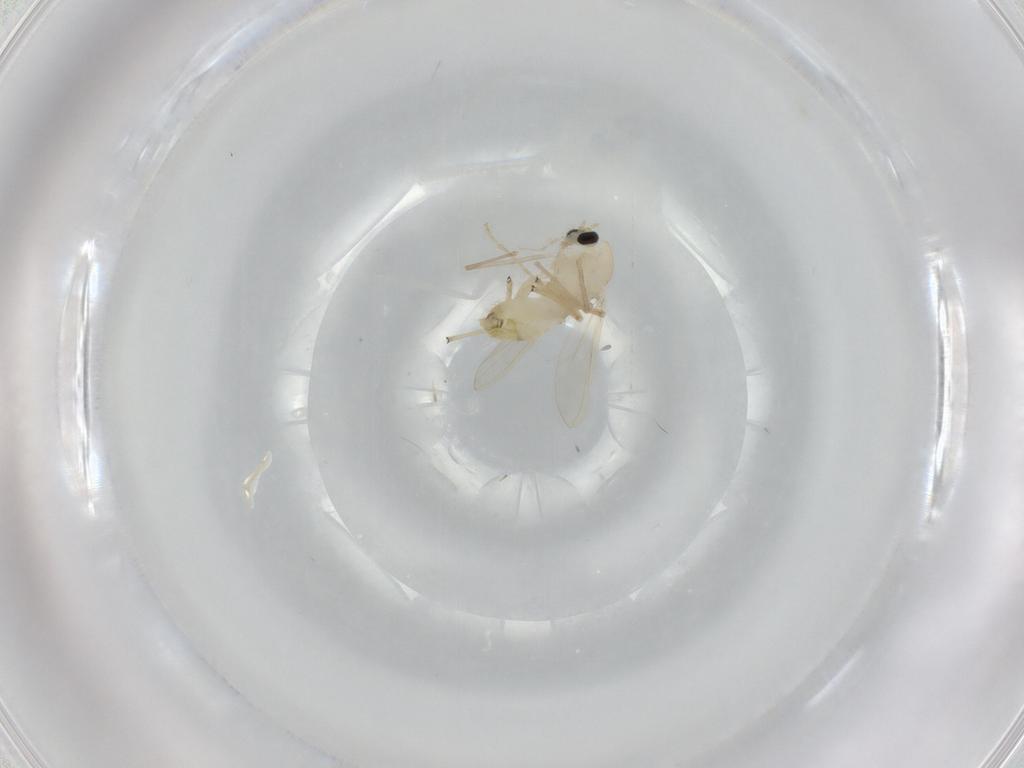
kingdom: Animalia
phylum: Arthropoda
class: Insecta
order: Diptera
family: Chironomidae
